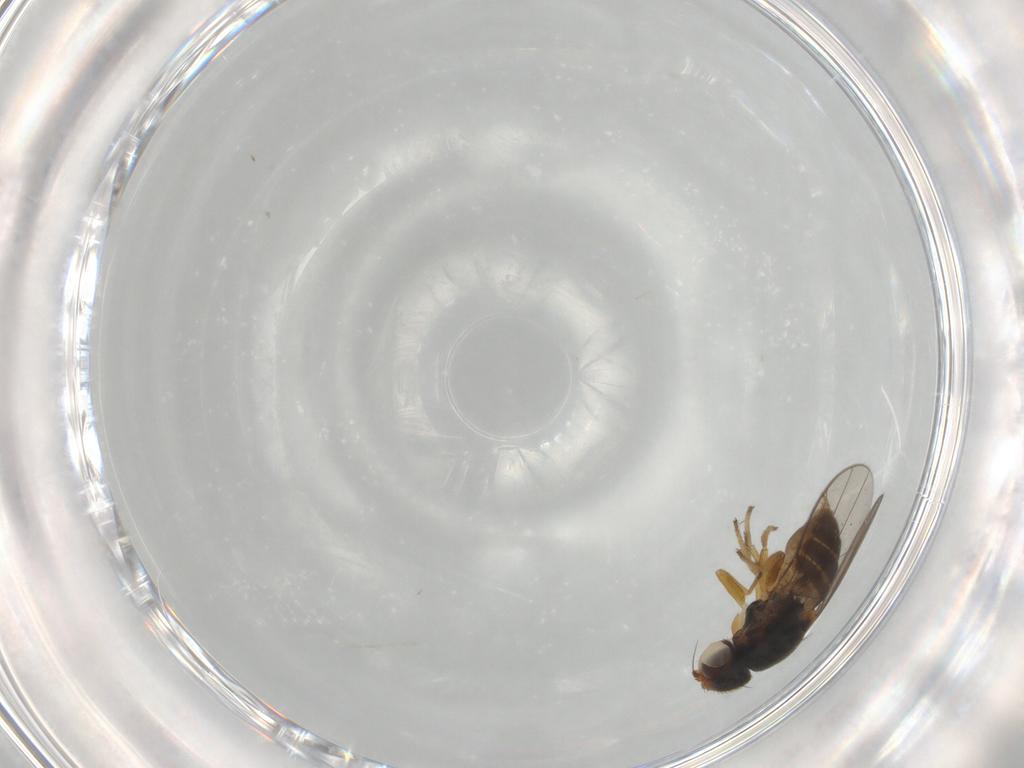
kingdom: Animalia
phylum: Arthropoda
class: Insecta
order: Diptera
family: Chloropidae
